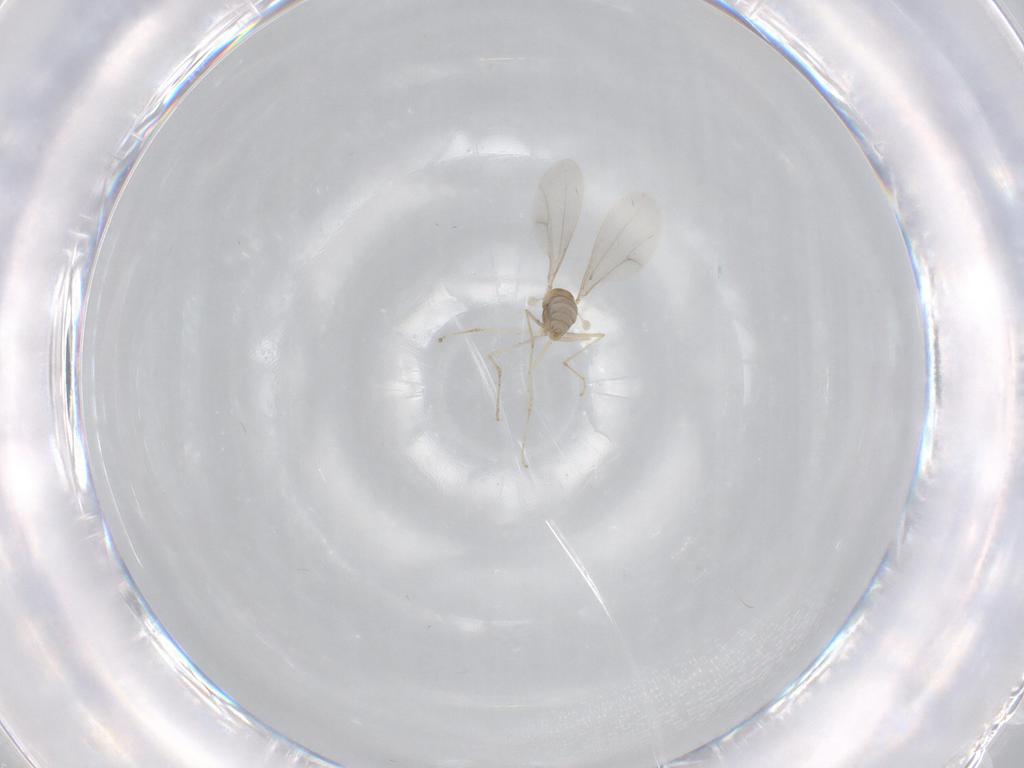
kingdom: Animalia
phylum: Arthropoda
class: Insecta
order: Diptera
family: Cecidomyiidae
